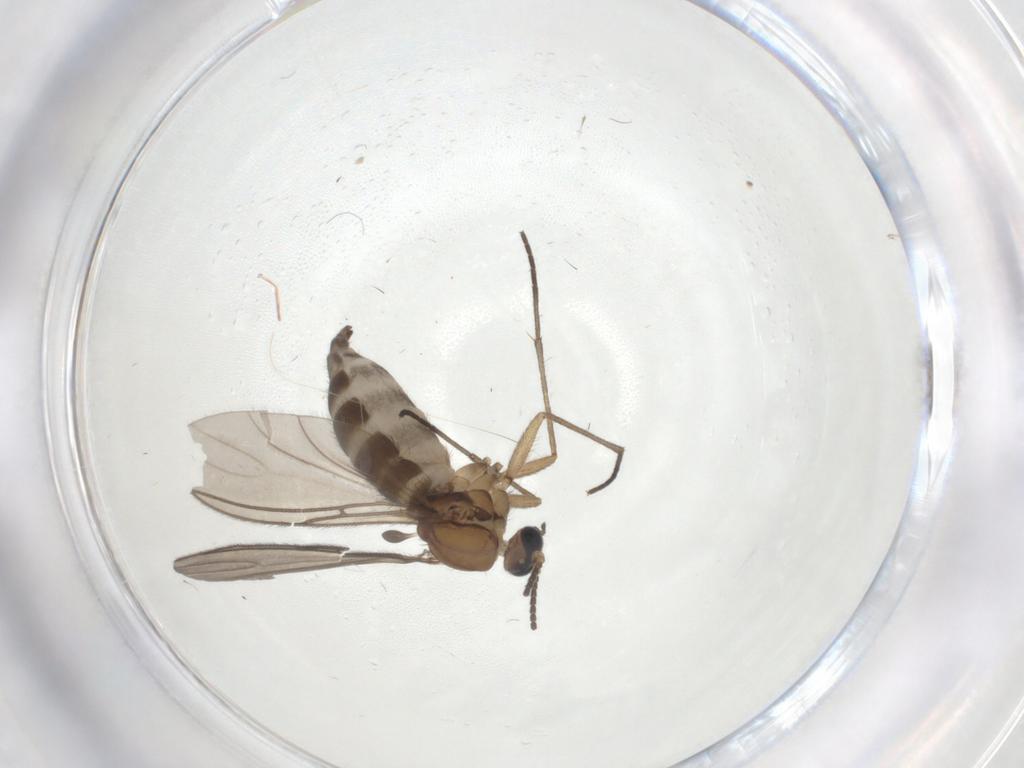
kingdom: Animalia
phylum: Arthropoda
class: Insecta
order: Diptera
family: Sciaridae
